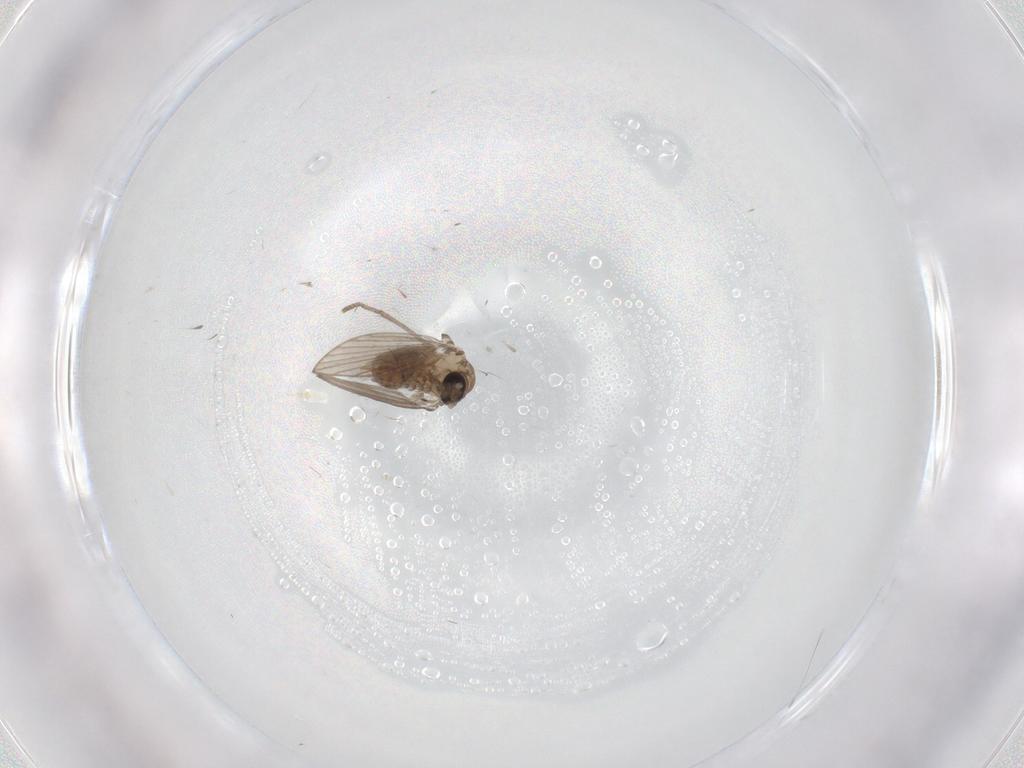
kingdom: Animalia
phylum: Arthropoda
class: Insecta
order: Diptera
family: Psychodidae
